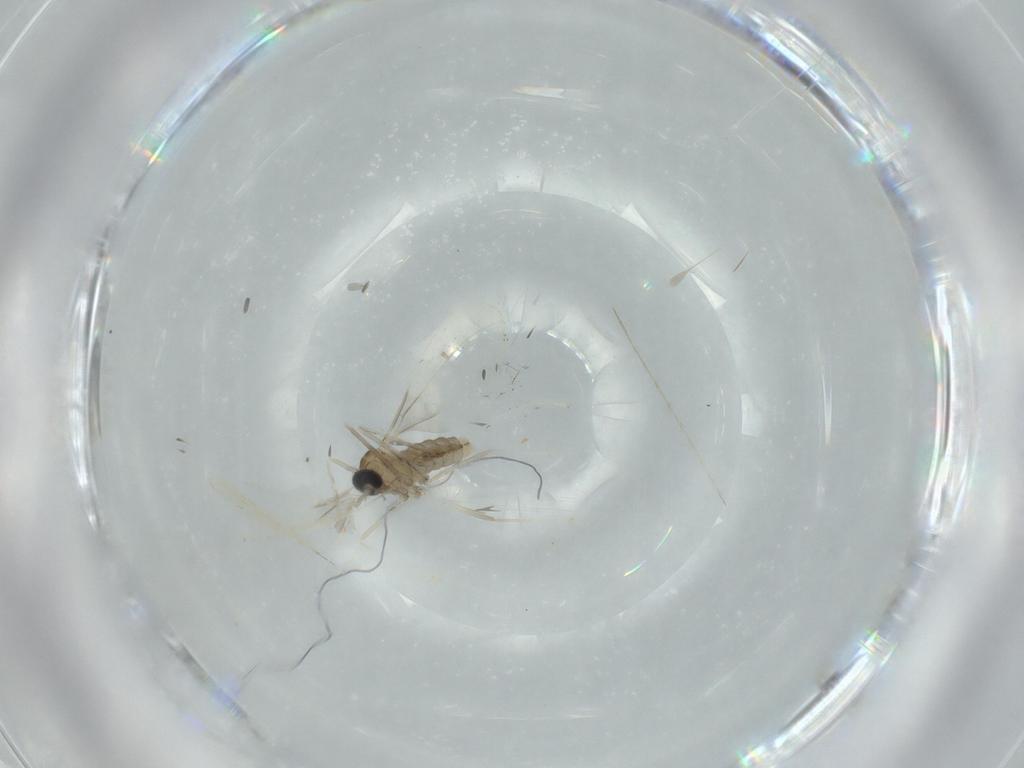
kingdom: Animalia
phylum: Arthropoda
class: Insecta
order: Diptera
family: Cecidomyiidae
